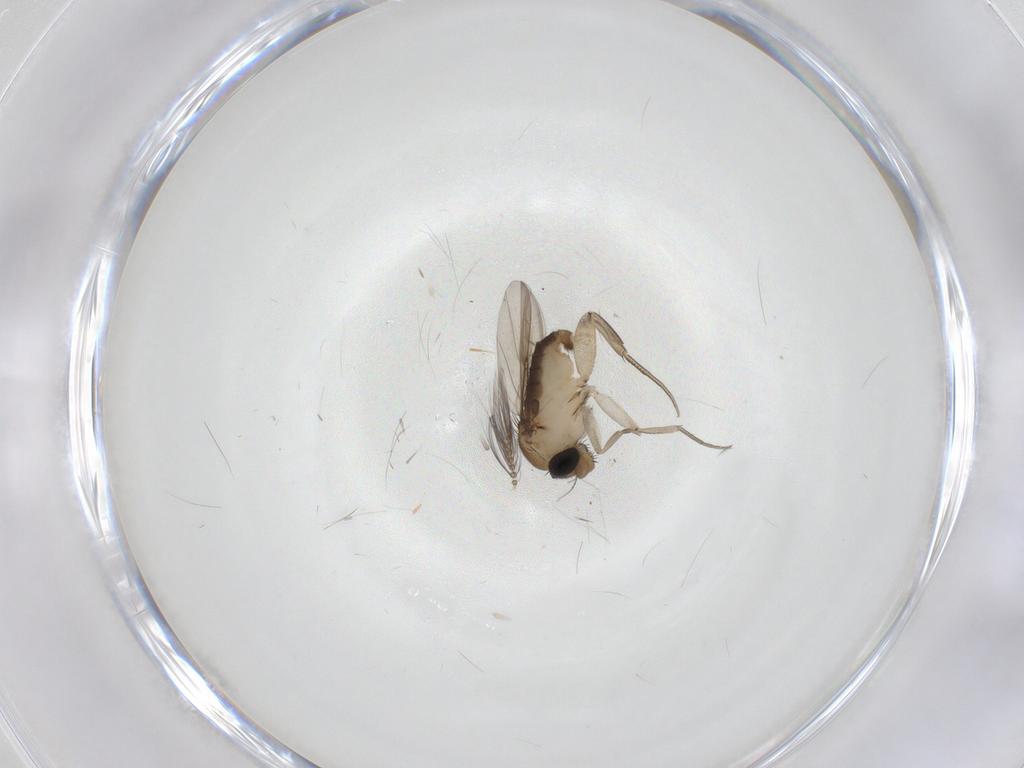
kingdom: Animalia
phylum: Arthropoda
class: Insecta
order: Diptera
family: Phoridae
